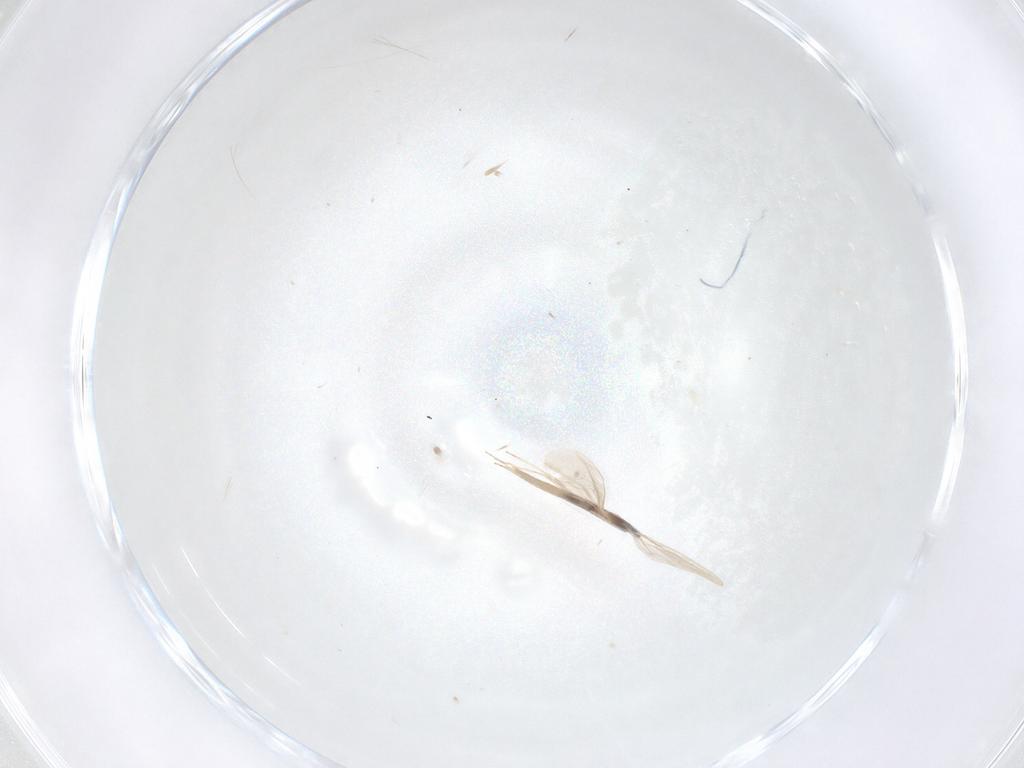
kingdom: Animalia
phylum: Arthropoda
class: Insecta
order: Diptera
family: Cecidomyiidae
